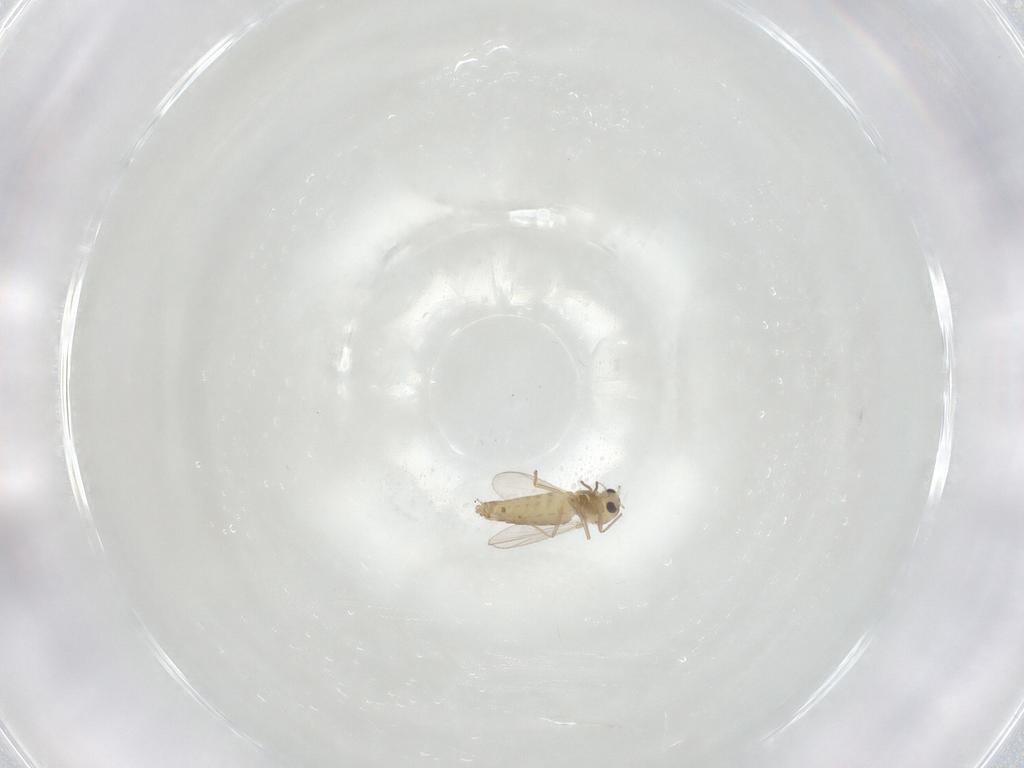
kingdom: Animalia
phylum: Arthropoda
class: Insecta
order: Diptera
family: Chironomidae
